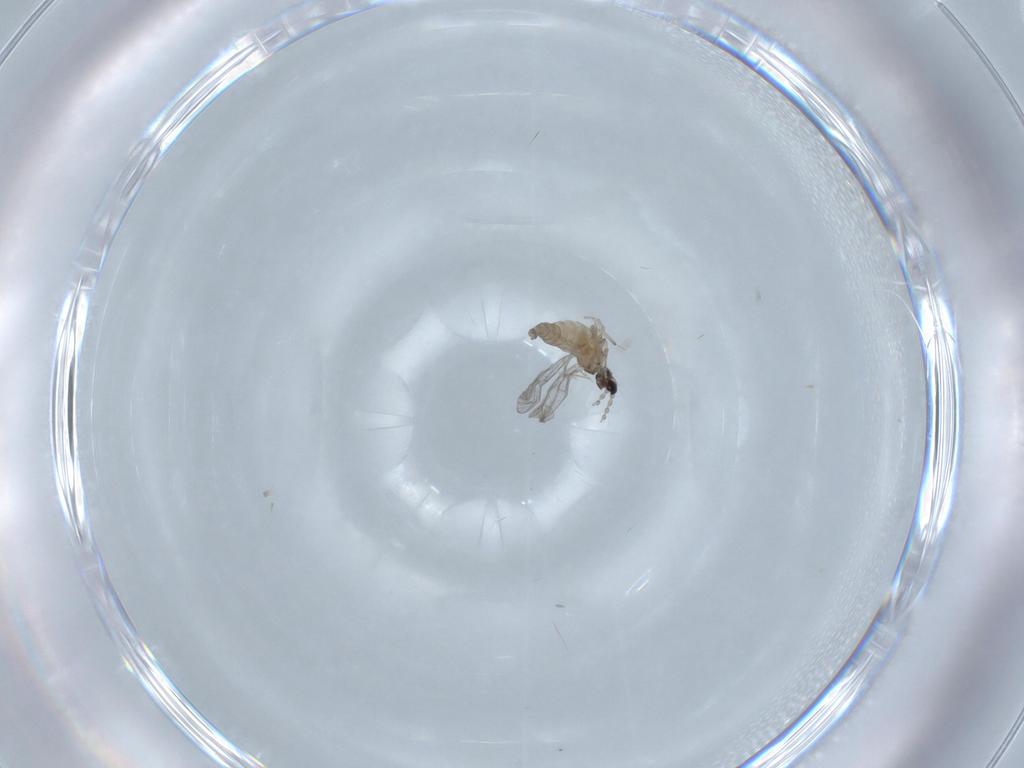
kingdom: Animalia
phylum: Arthropoda
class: Insecta
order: Diptera
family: Cecidomyiidae
